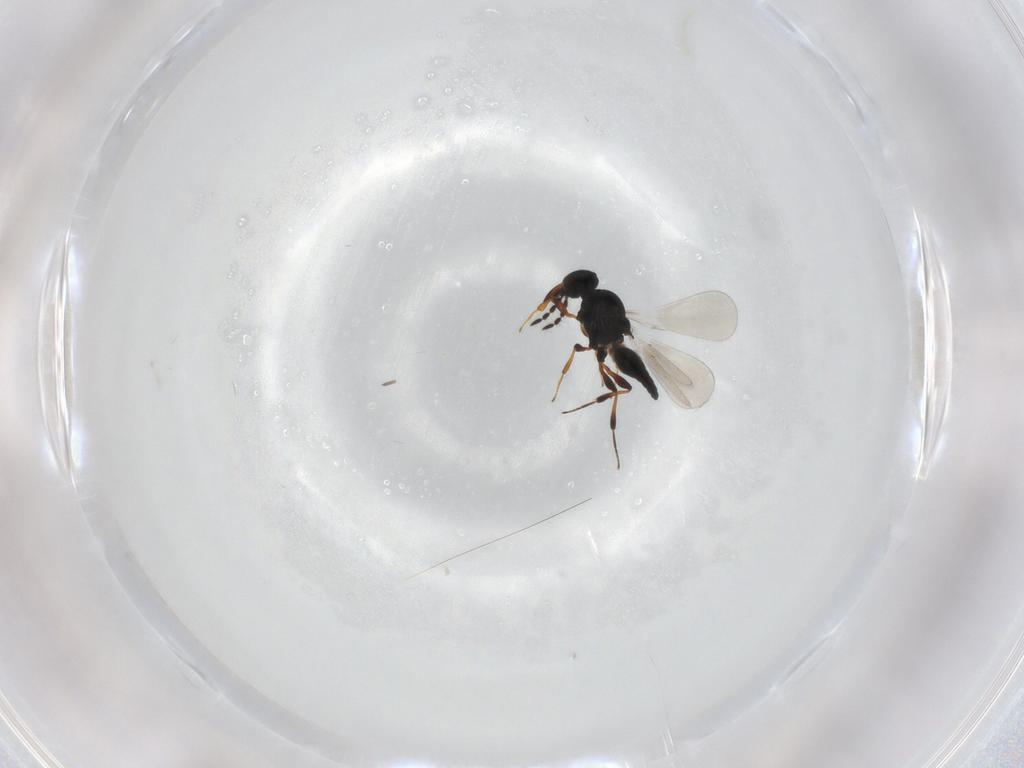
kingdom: Animalia
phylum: Arthropoda
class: Insecta
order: Hymenoptera
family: Platygastridae
